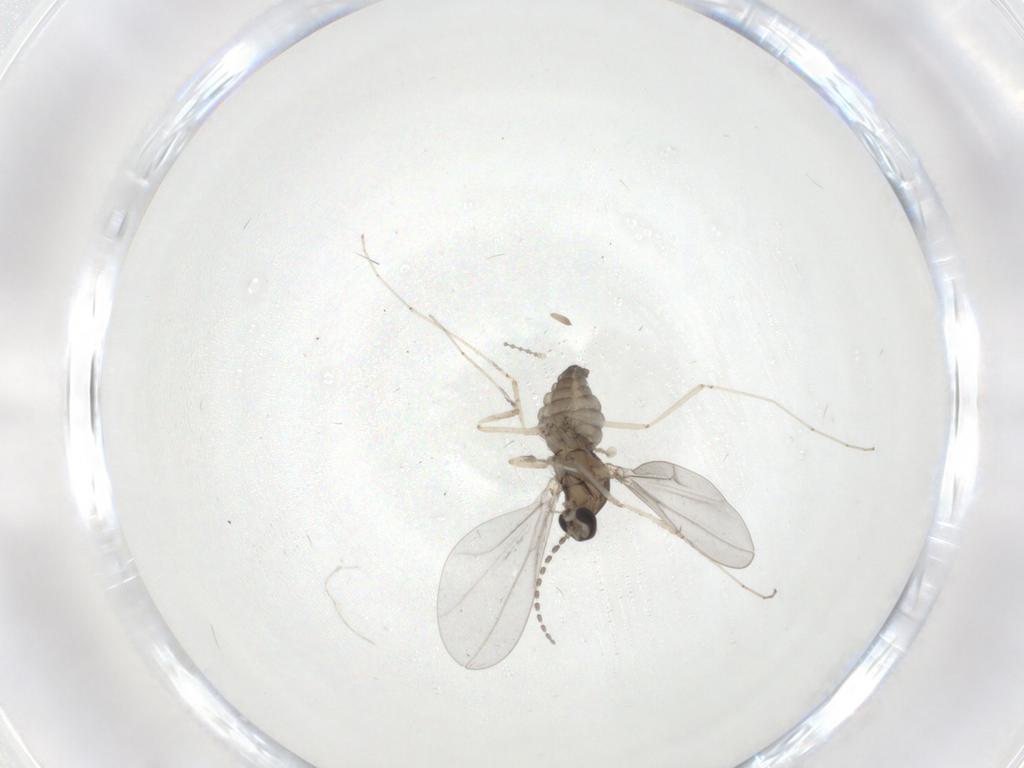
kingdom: Animalia
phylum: Arthropoda
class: Insecta
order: Diptera
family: Cecidomyiidae
